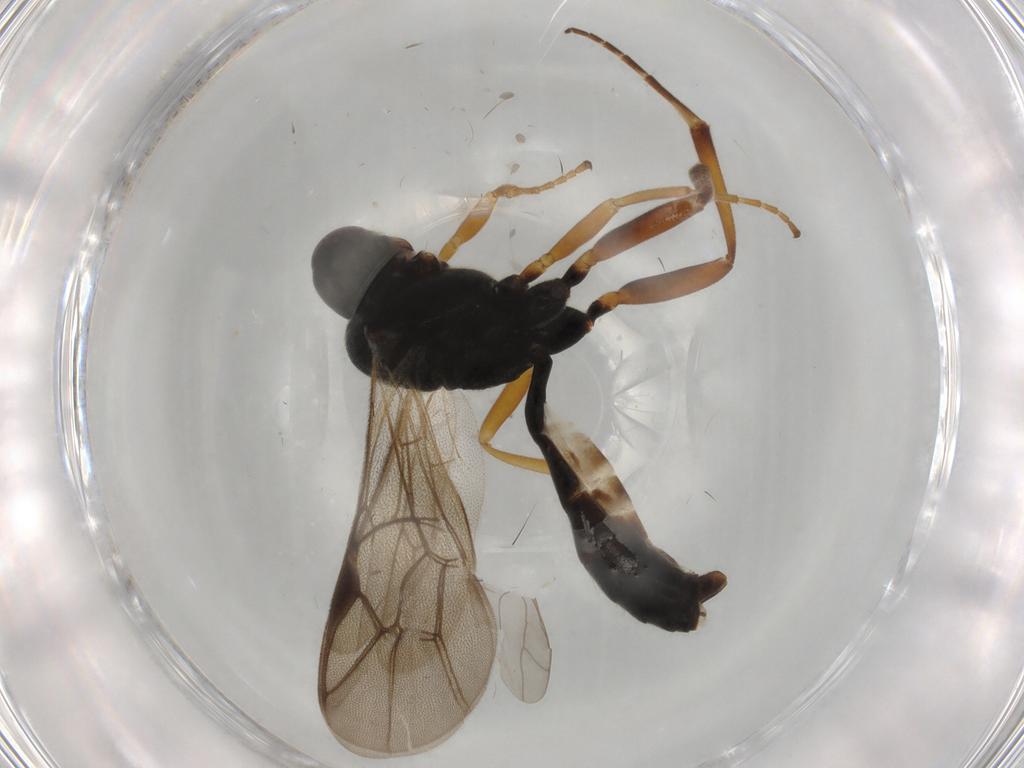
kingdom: Animalia
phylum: Arthropoda
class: Insecta
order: Hymenoptera
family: Ichneumonidae
